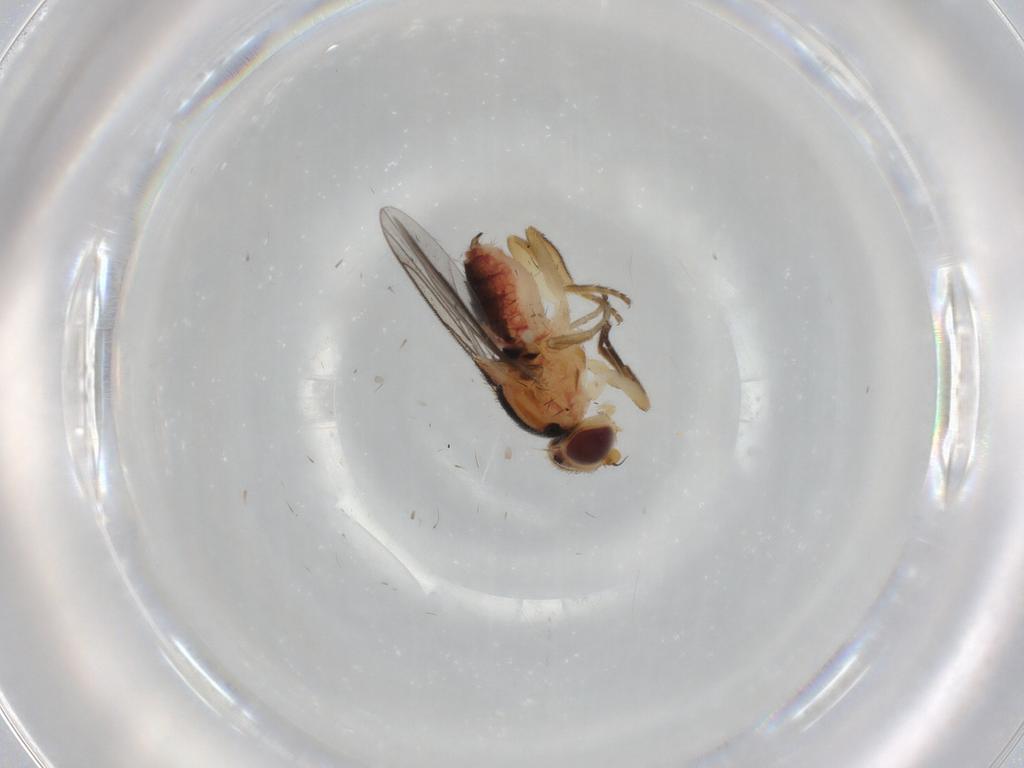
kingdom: Animalia
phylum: Arthropoda
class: Insecta
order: Diptera
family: Chloropidae
